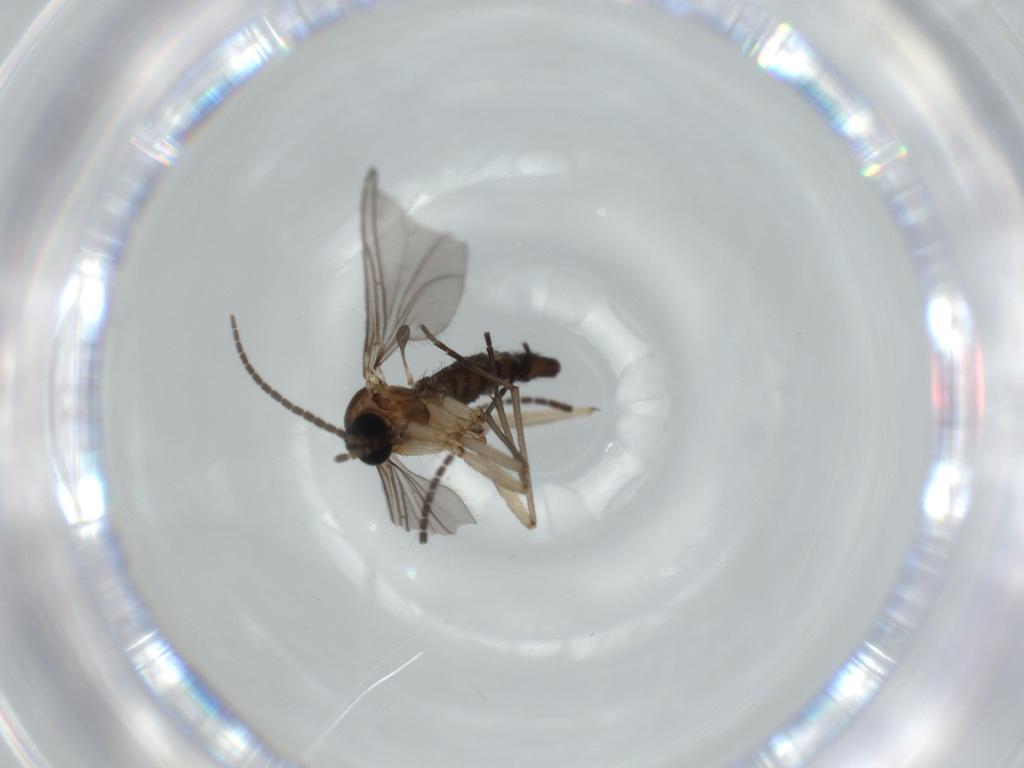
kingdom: Animalia
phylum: Arthropoda
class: Insecta
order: Diptera
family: Sciaridae
